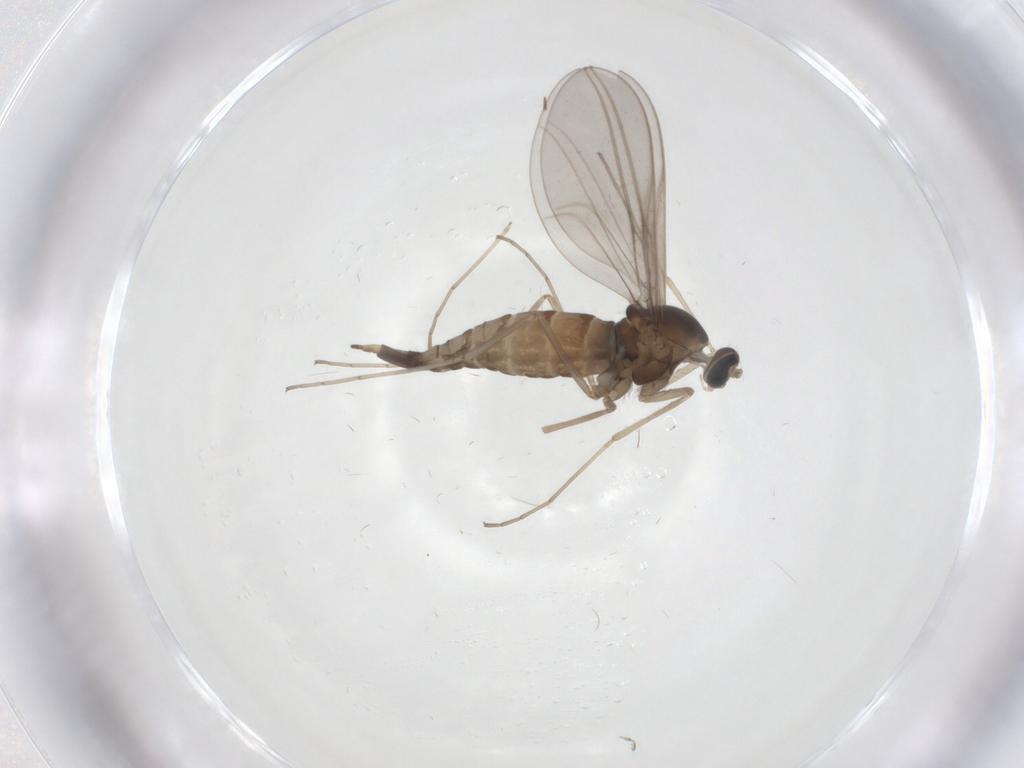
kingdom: Animalia
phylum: Arthropoda
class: Insecta
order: Diptera
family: Cecidomyiidae
